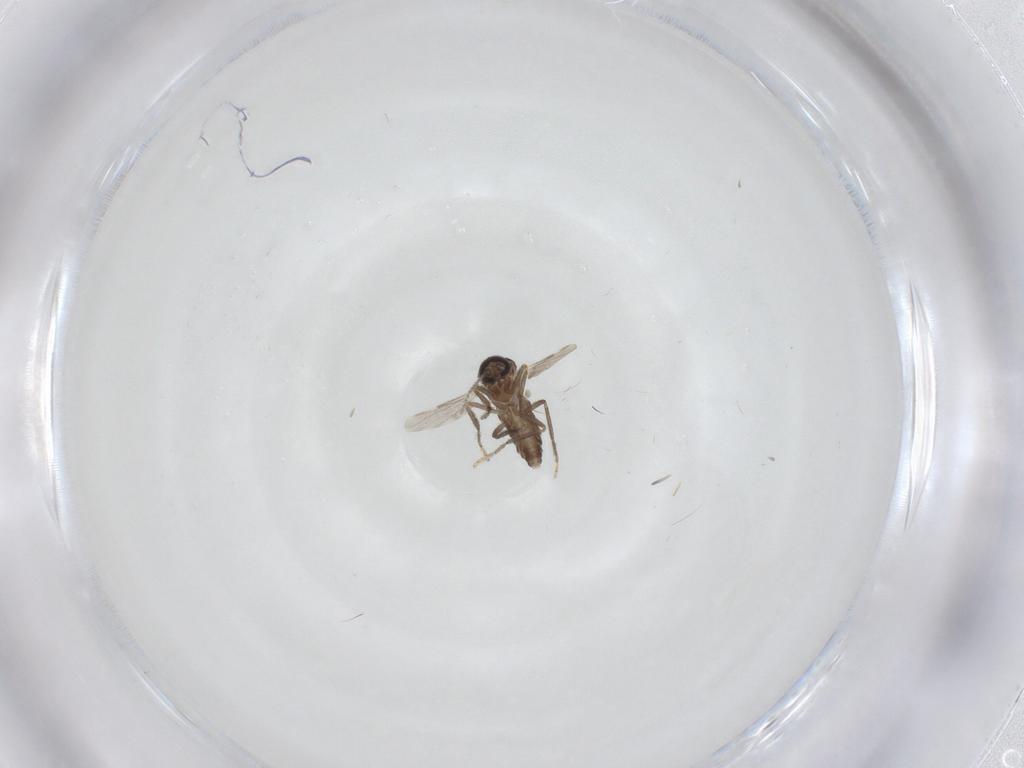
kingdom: Animalia
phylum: Arthropoda
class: Insecta
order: Diptera
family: Ceratopogonidae
